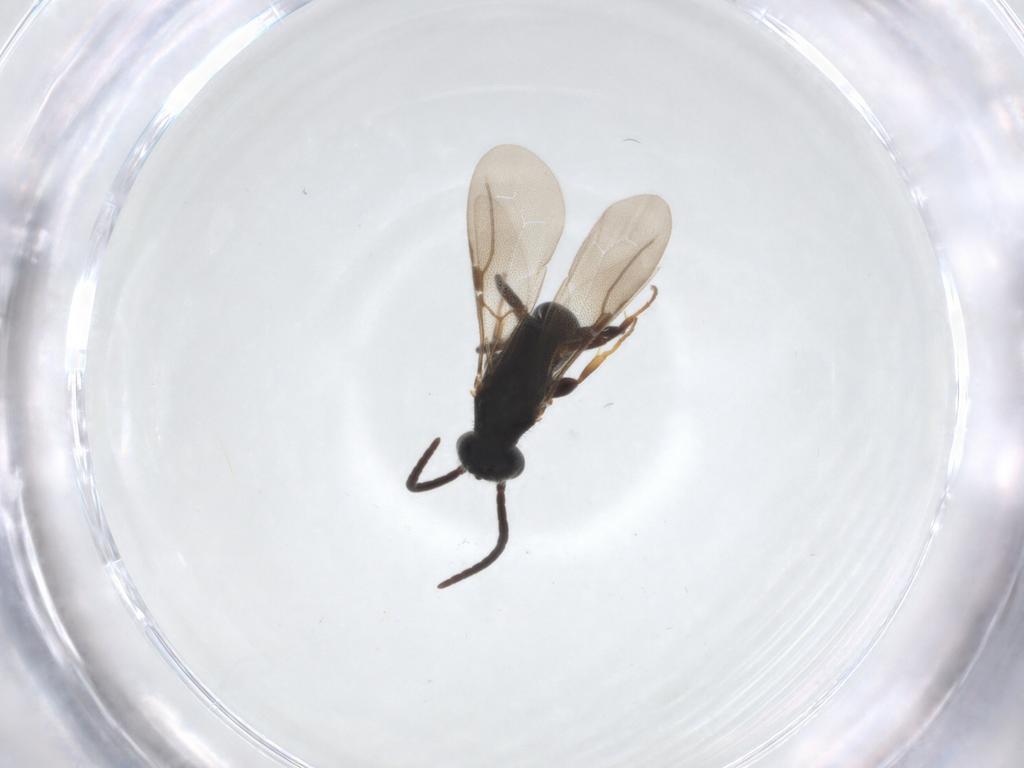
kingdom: Animalia
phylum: Arthropoda
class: Insecta
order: Hymenoptera
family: Bethylidae
